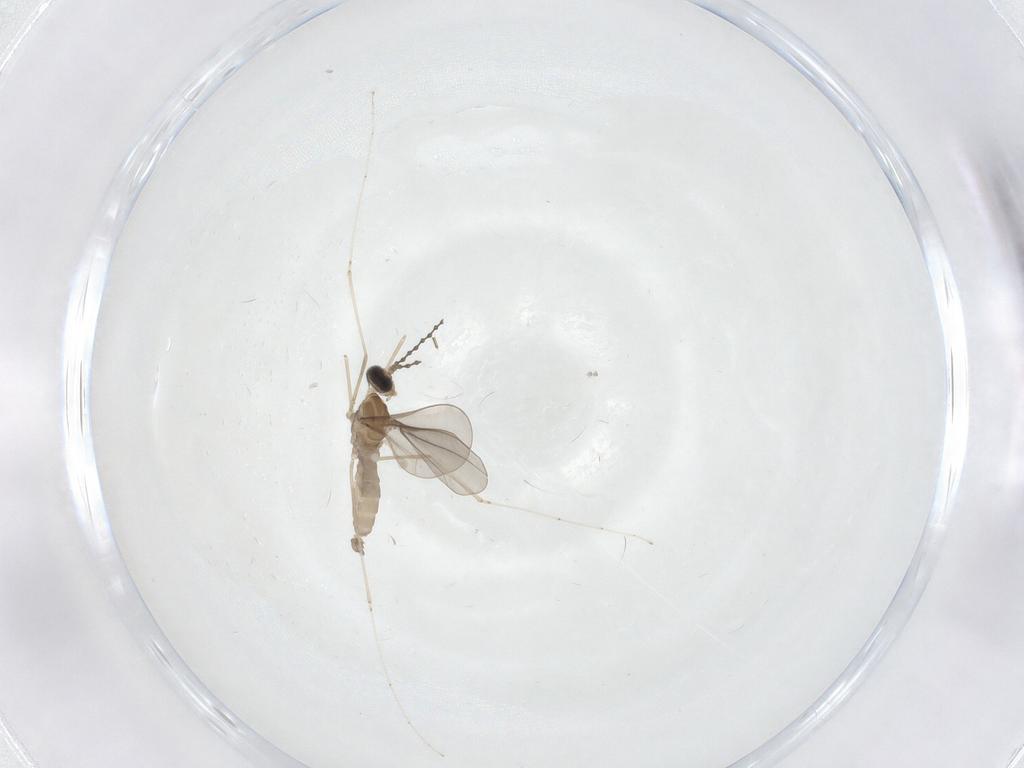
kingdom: Animalia
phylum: Arthropoda
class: Insecta
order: Diptera
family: Cecidomyiidae
